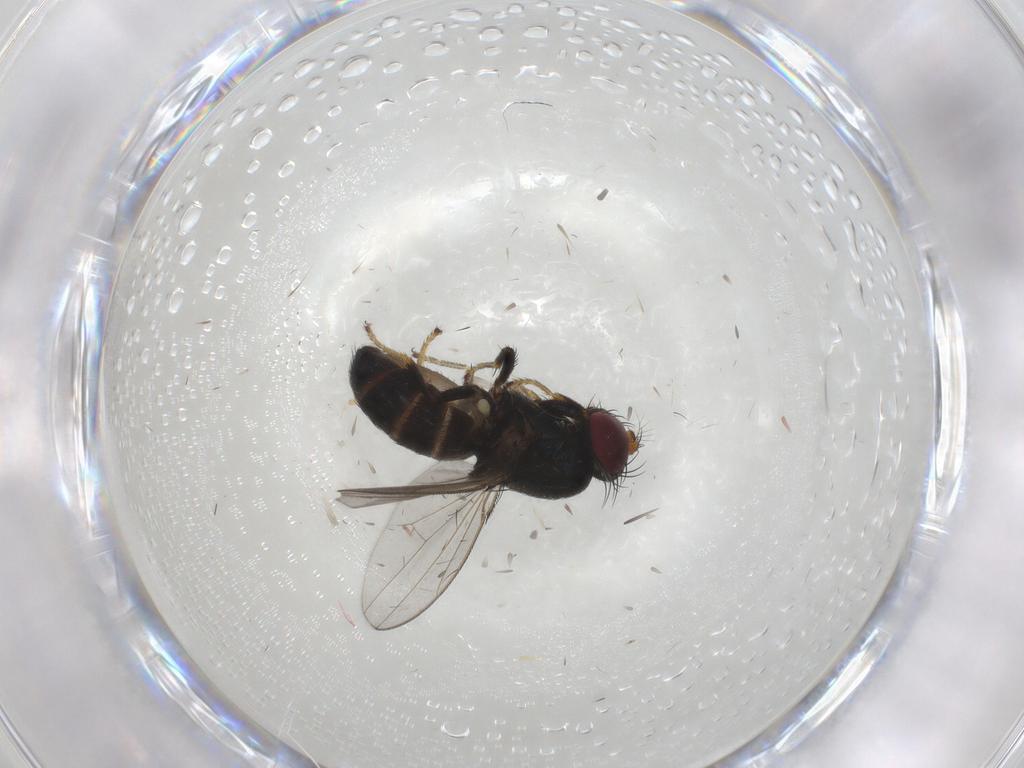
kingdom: Animalia
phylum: Arthropoda
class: Insecta
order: Diptera
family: Ephydridae
